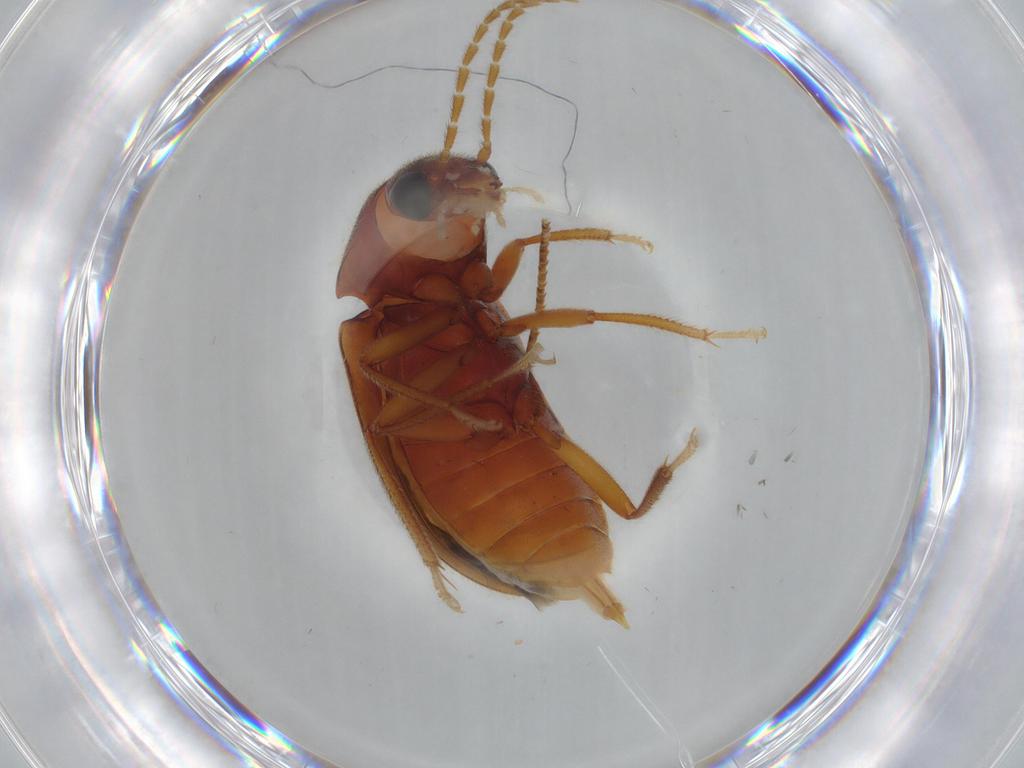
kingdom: Animalia
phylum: Arthropoda
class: Insecta
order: Coleoptera
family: Ptilodactylidae
